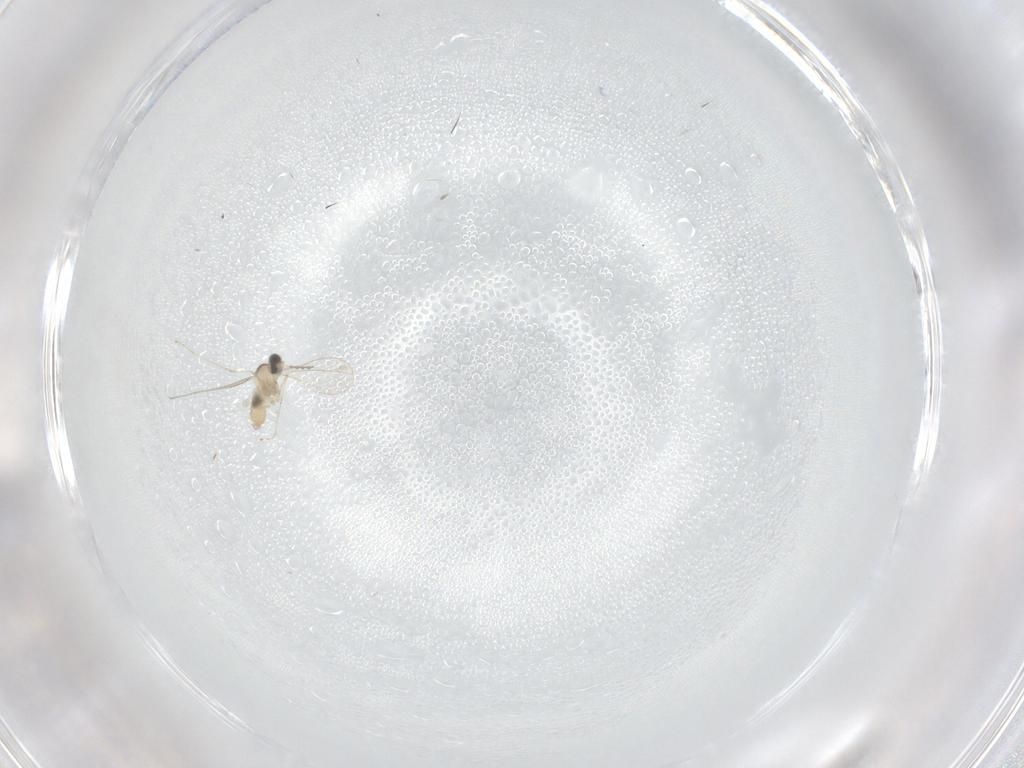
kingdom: Animalia
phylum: Arthropoda
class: Insecta
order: Diptera
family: Cecidomyiidae
